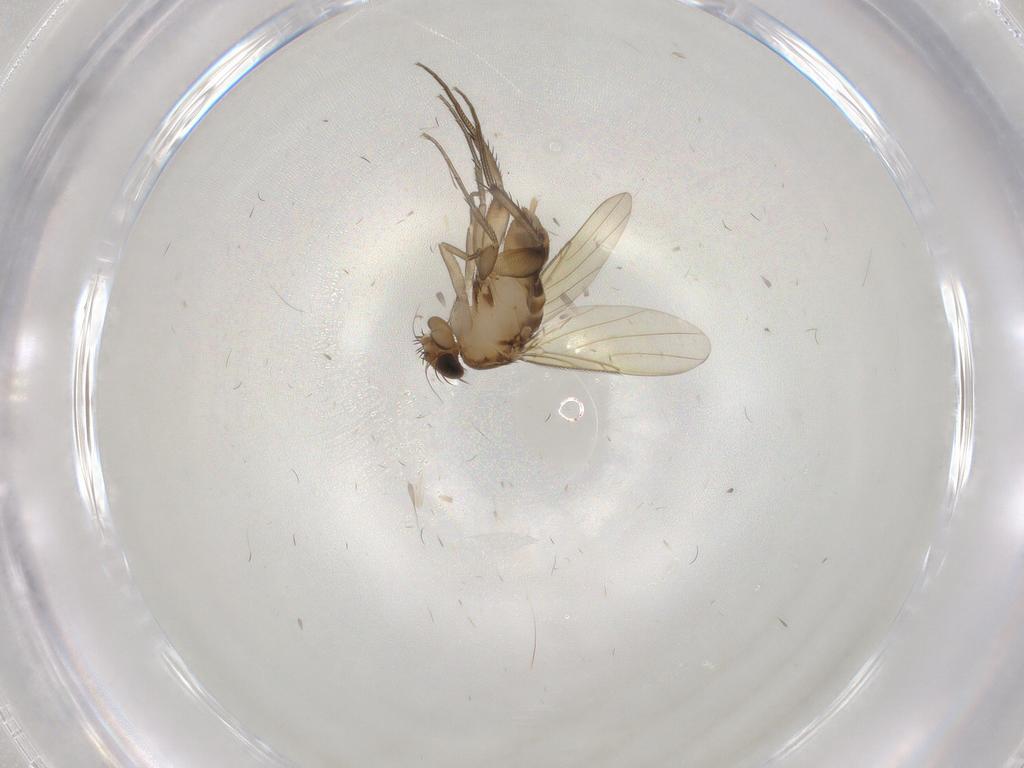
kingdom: Animalia
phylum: Arthropoda
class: Insecta
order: Diptera
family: Phoridae
